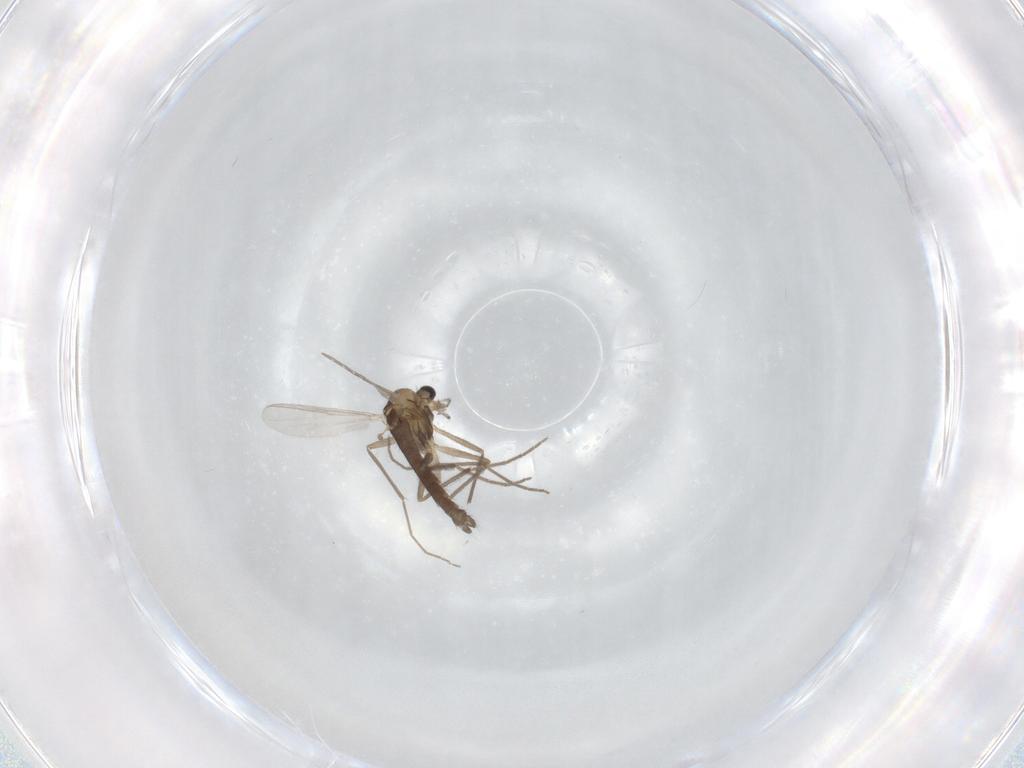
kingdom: Animalia
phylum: Arthropoda
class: Insecta
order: Diptera
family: Chironomidae
